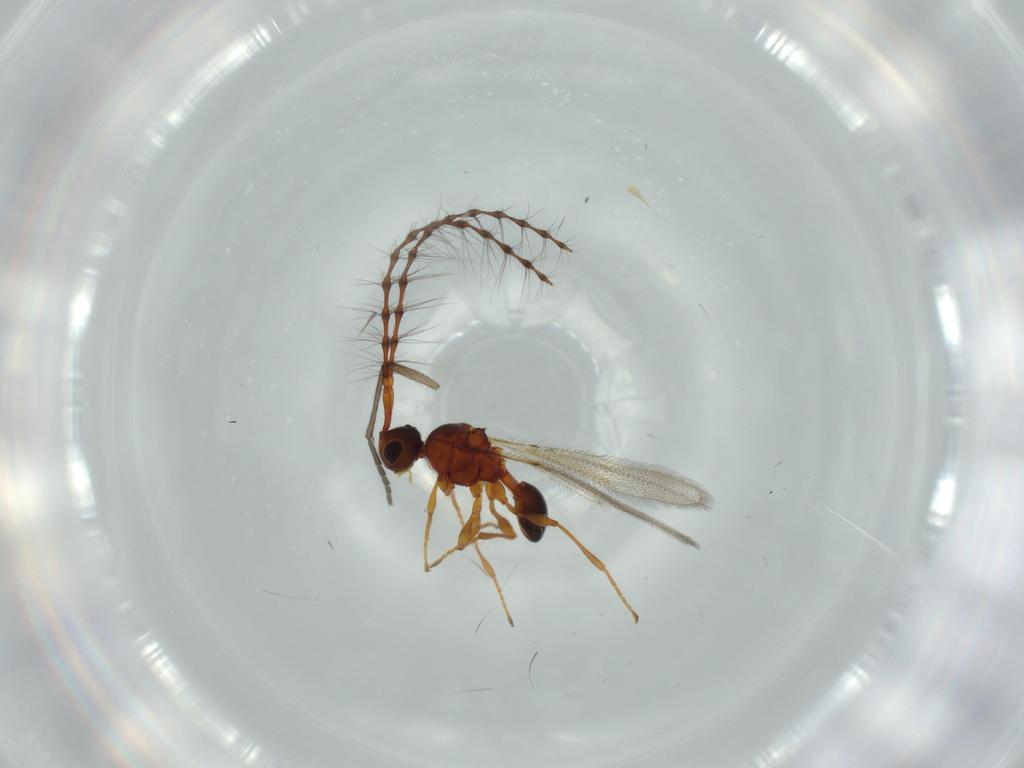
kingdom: Animalia
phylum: Arthropoda
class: Insecta
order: Hymenoptera
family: Diapriidae
